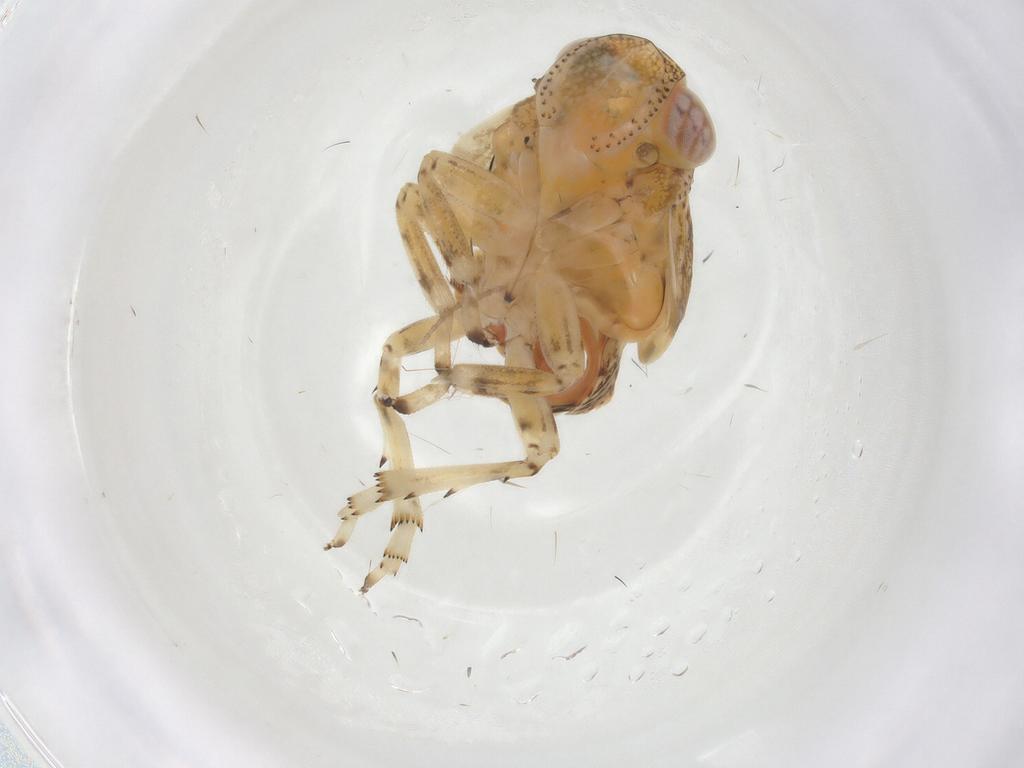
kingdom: Animalia
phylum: Arthropoda
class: Insecta
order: Hemiptera
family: Issidae
